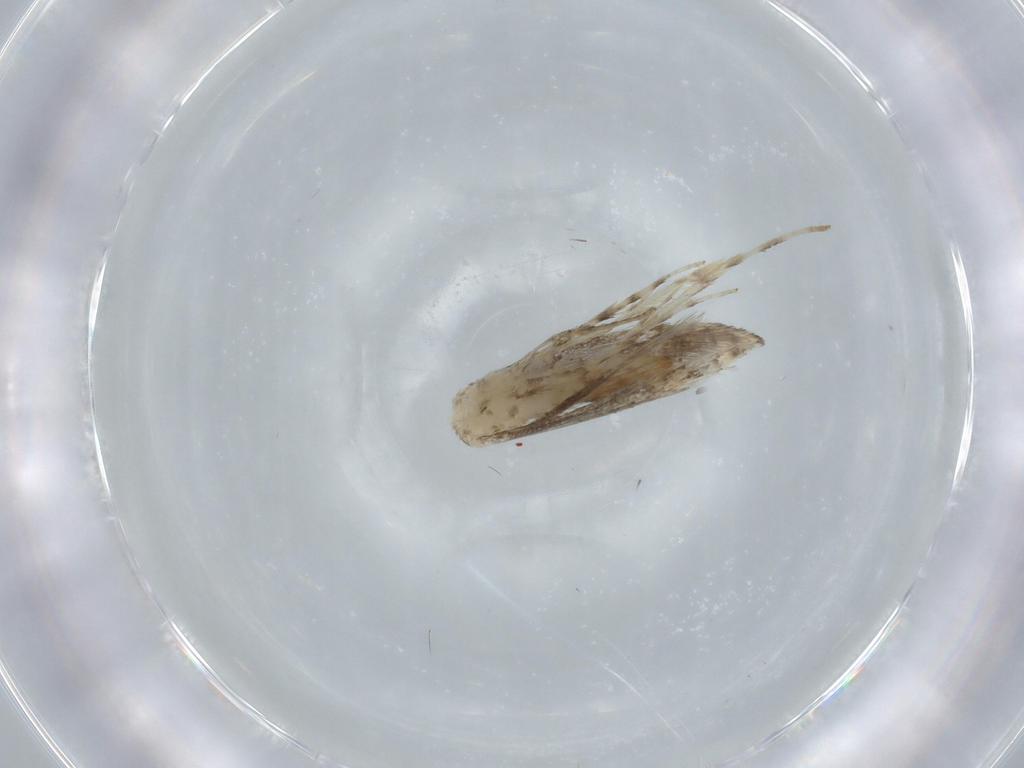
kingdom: Animalia
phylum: Arthropoda
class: Insecta
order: Lepidoptera
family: Gracillariidae
